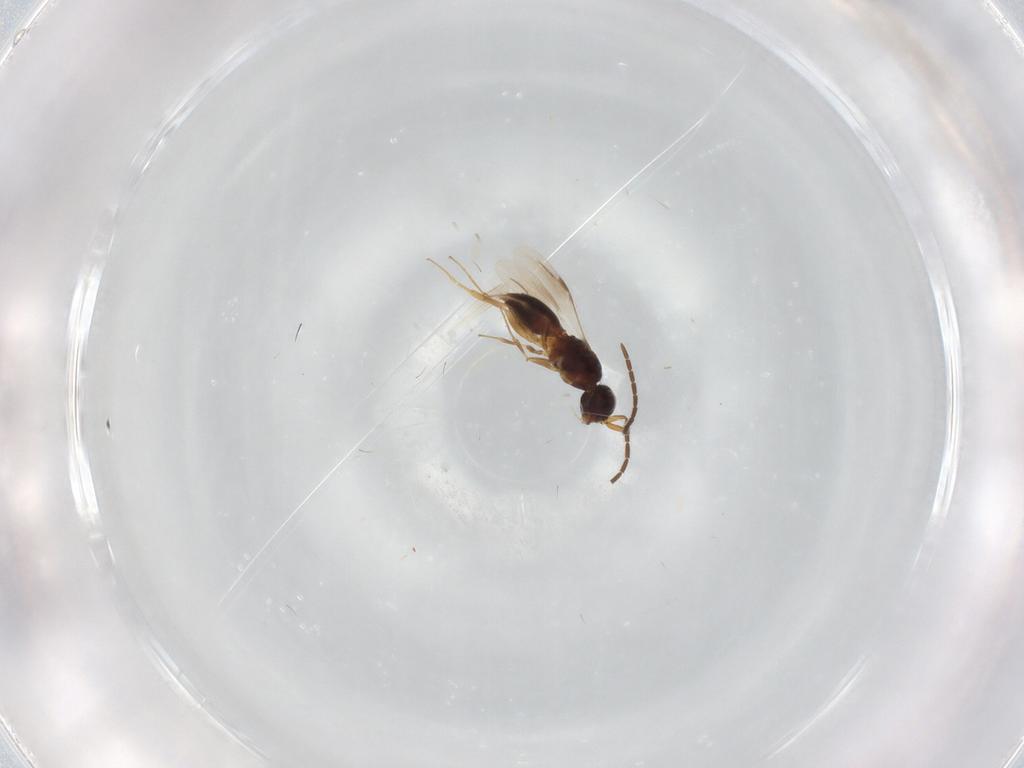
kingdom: Animalia
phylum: Arthropoda
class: Insecta
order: Hymenoptera
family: Megaspilidae
